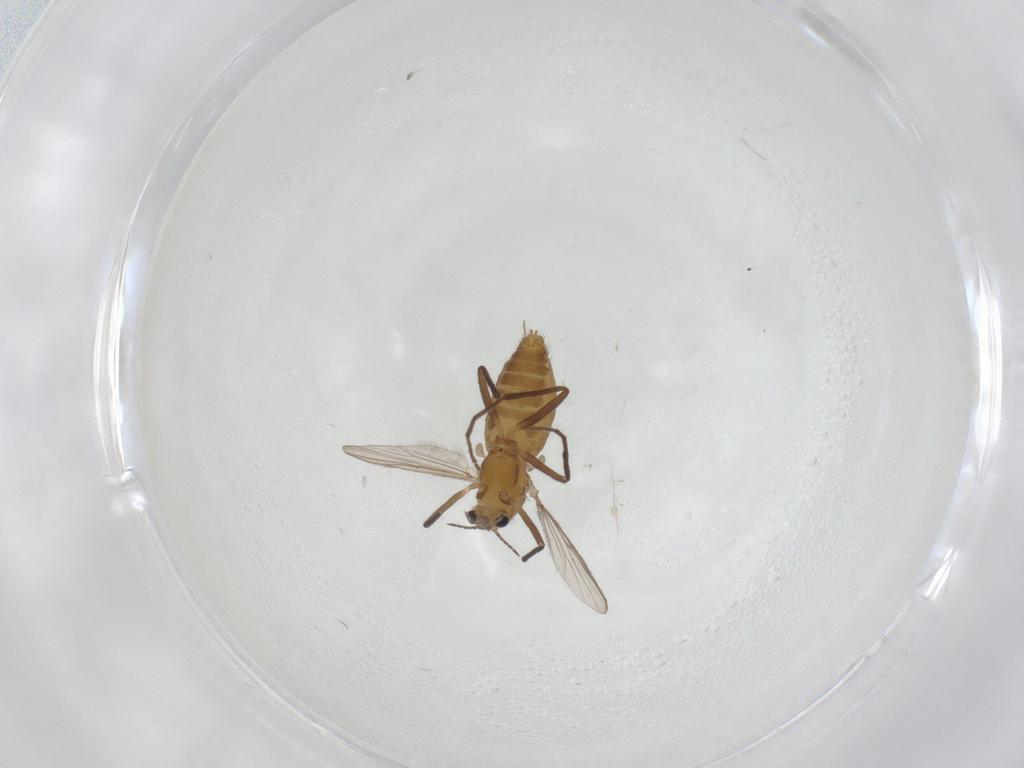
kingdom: Animalia
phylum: Arthropoda
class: Insecta
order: Diptera
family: Chironomidae
